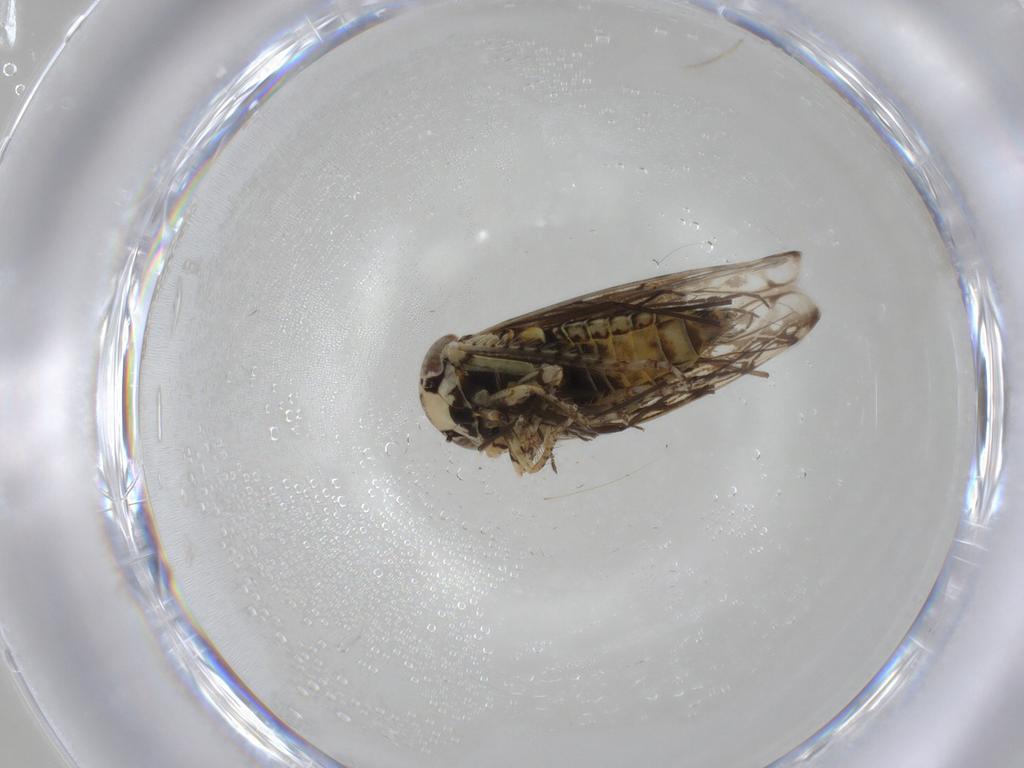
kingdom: Animalia
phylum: Arthropoda
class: Insecta
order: Hemiptera
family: Cicadellidae
